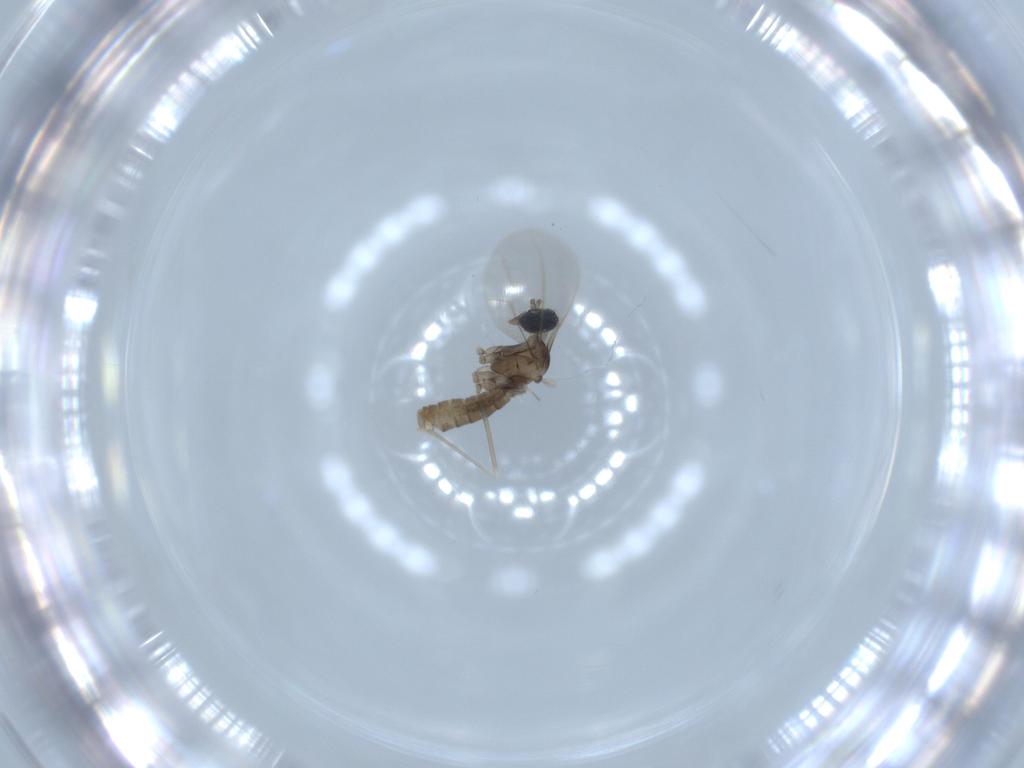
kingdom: Animalia
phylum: Arthropoda
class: Insecta
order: Diptera
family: Cecidomyiidae
